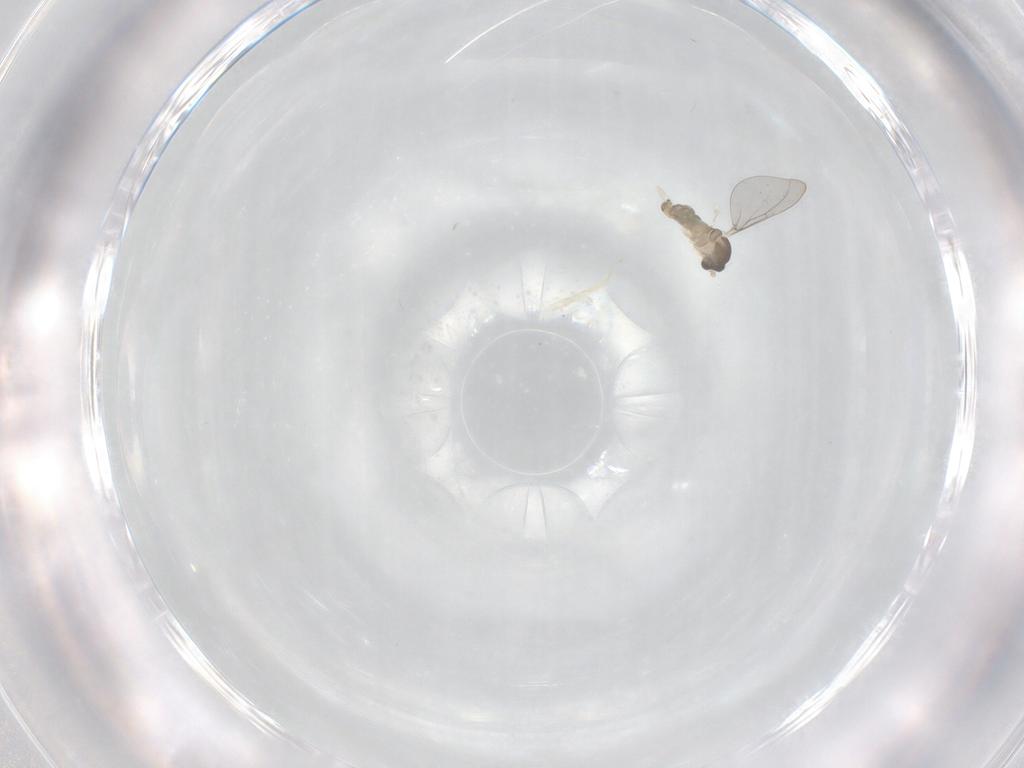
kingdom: Animalia
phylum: Arthropoda
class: Insecta
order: Diptera
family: Cecidomyiidae
